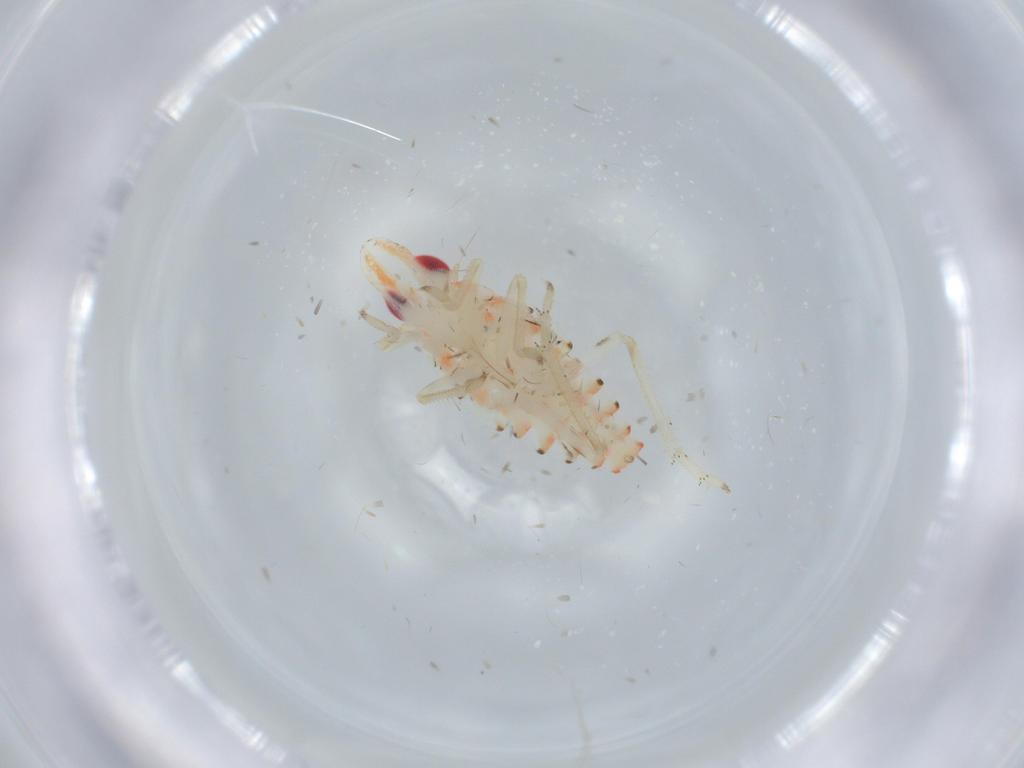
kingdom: Animalia
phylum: Arthropoda
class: Insecta
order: Hemiptera
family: Tropiduchidae
